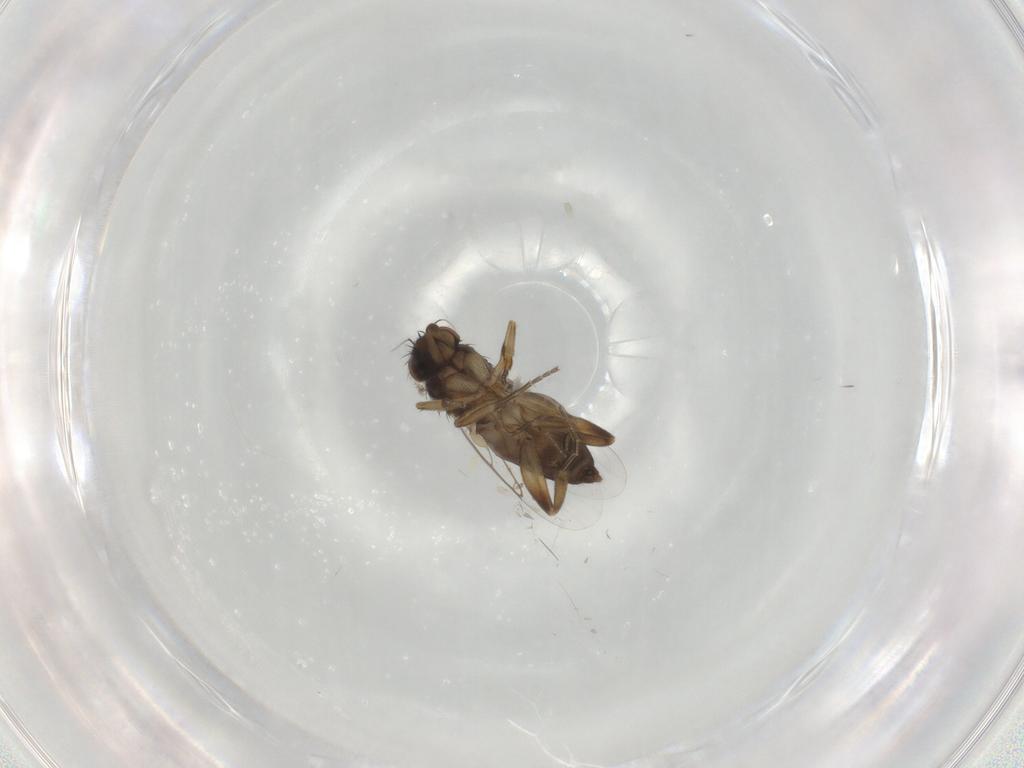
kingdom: Animalia
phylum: Arthropoda
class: Insecta
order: Diptera
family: Phoridae
